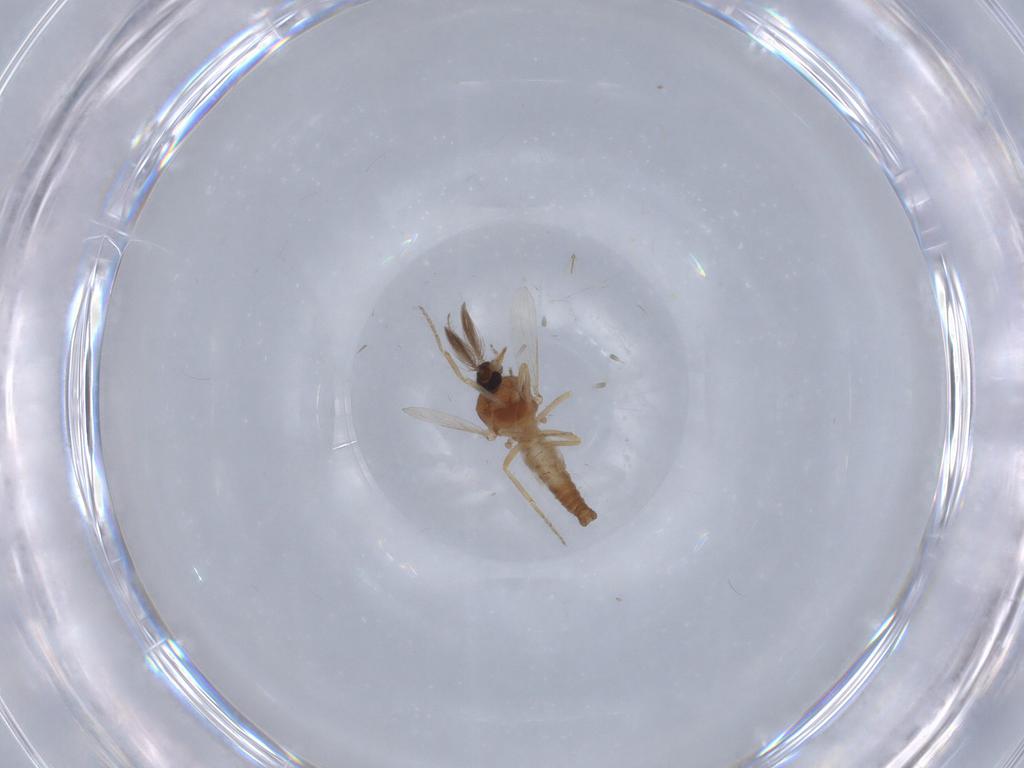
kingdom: Animalia
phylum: Arthropoda
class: Insecta
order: Diptera
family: Ceratopogonidae
